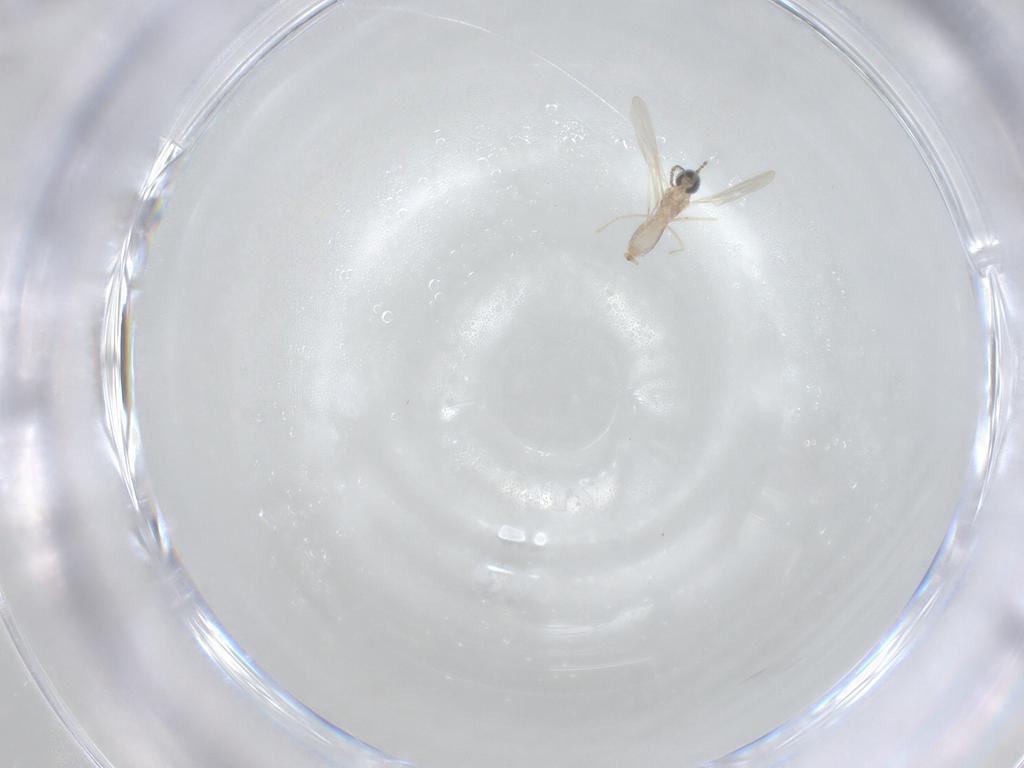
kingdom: Animalia
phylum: Arthropoda
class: Insecta
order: Diptera
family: Cecidomyiidae
